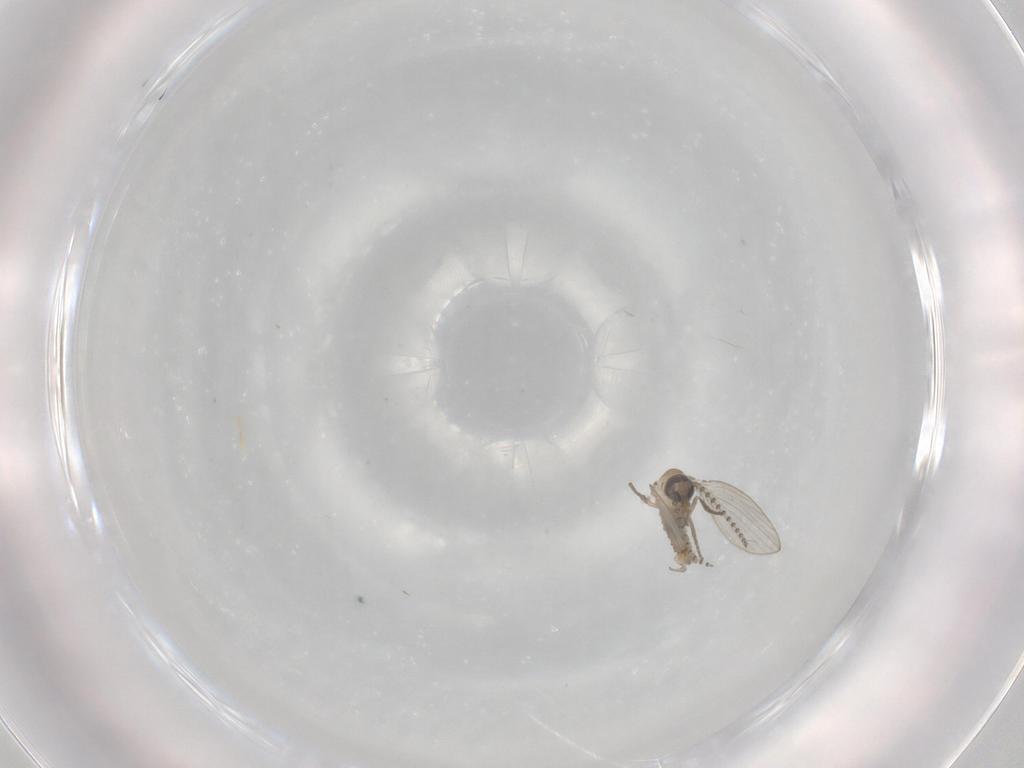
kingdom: Animalia
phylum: Arthropoda
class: Insecta
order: Diptera
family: Psychodidae
